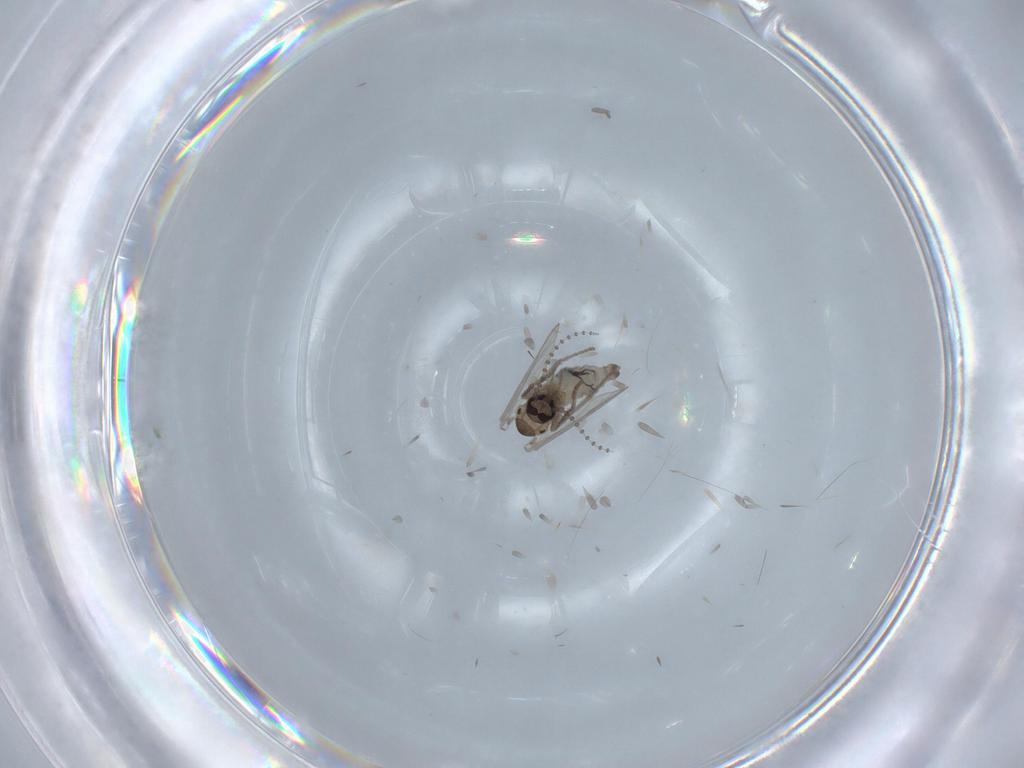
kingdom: Animalia
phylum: Arthropoda
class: Insecta
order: Diptera
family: Psychodidae
